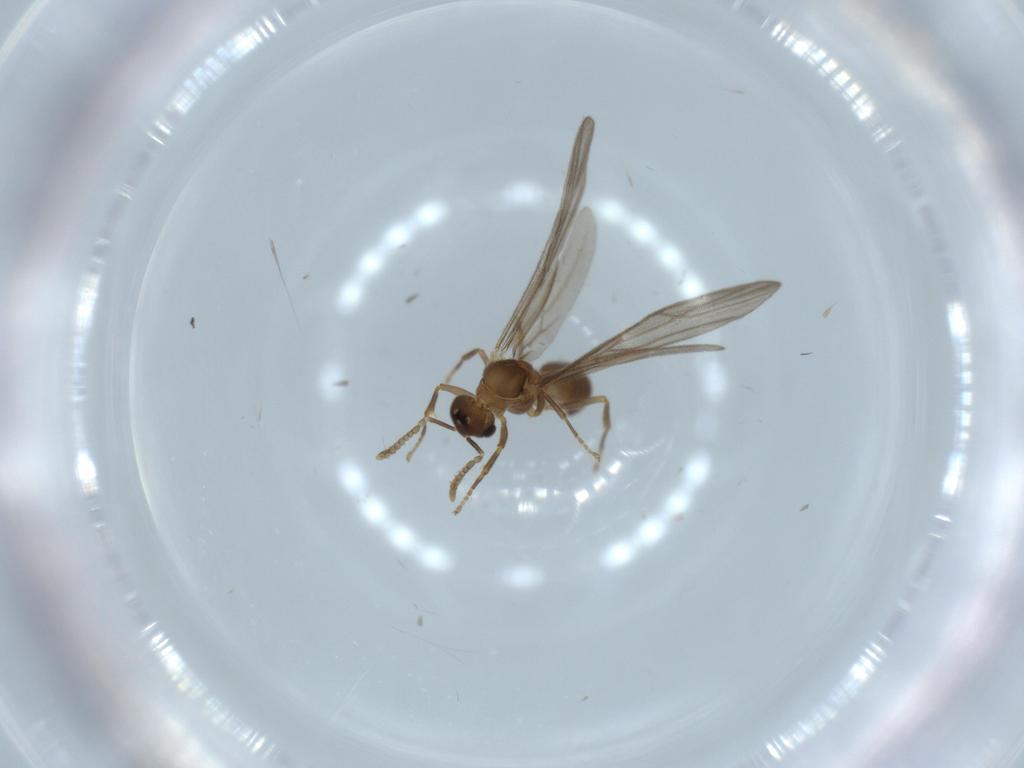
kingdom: Animalia
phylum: Arthropoda
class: Insecta
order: Hymenoptera
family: Formicidae
